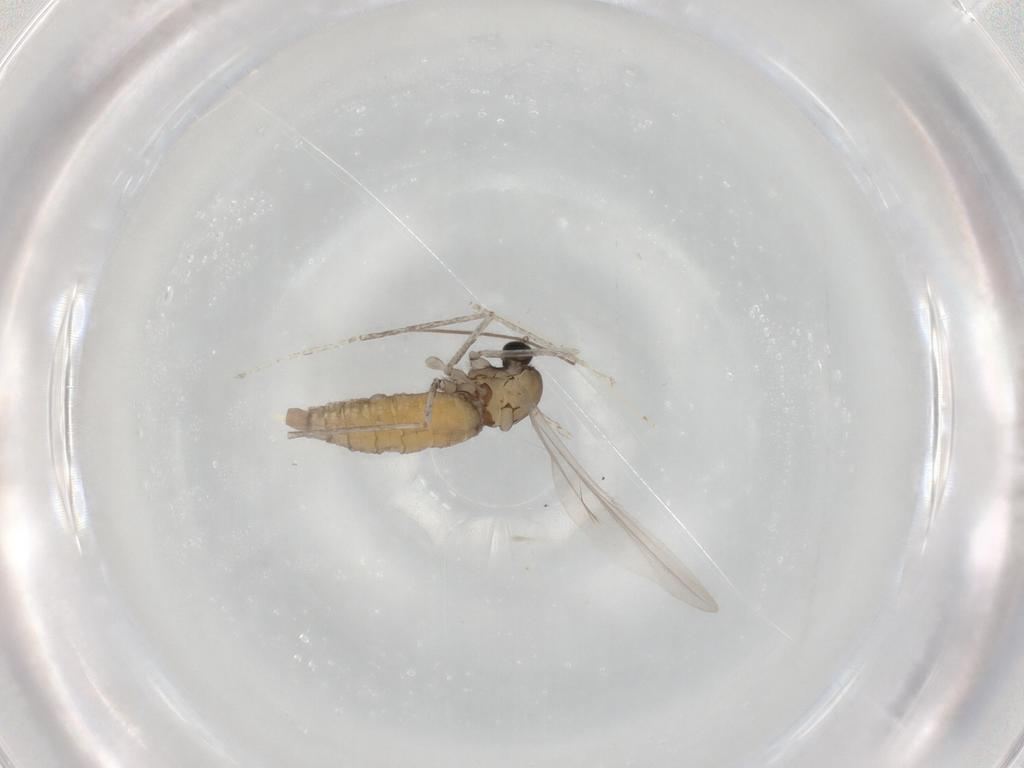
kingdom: Animalia
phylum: Arthropoda
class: Insecta
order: Diptera
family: Cecidomyiidae
